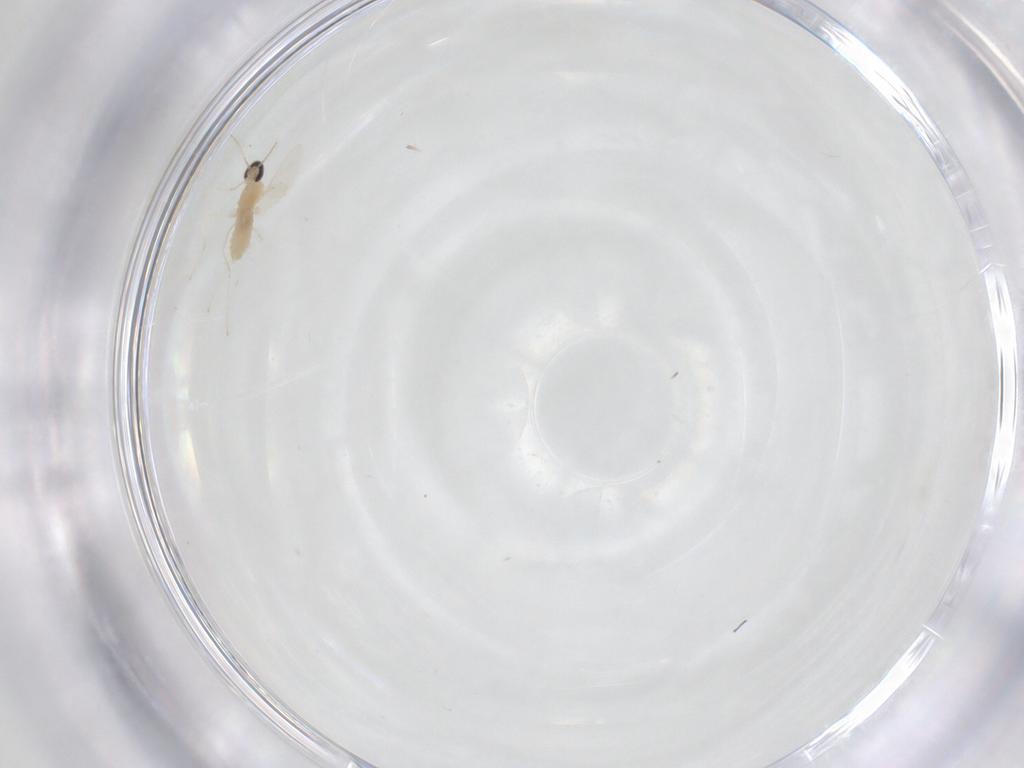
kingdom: Animalia
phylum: Arthropoda
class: Insecta
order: Diptera
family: Cecidomyiidae
